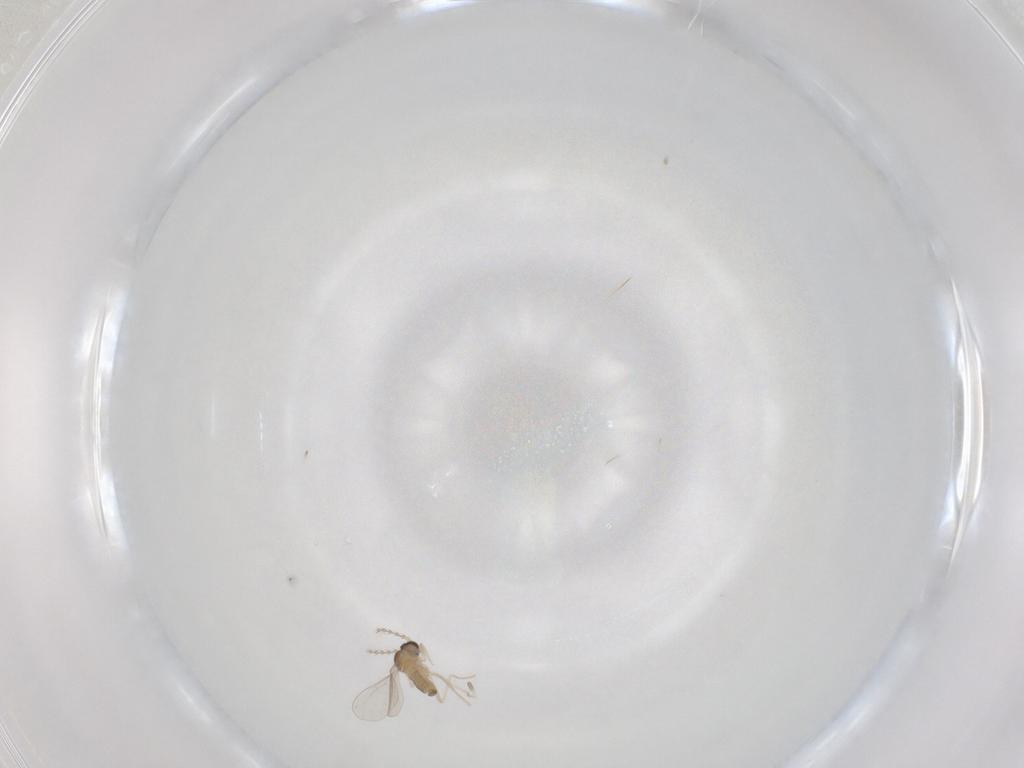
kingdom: Animalia
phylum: Arthropoda
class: Insecta
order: Diptera
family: Cecidomyiidae
